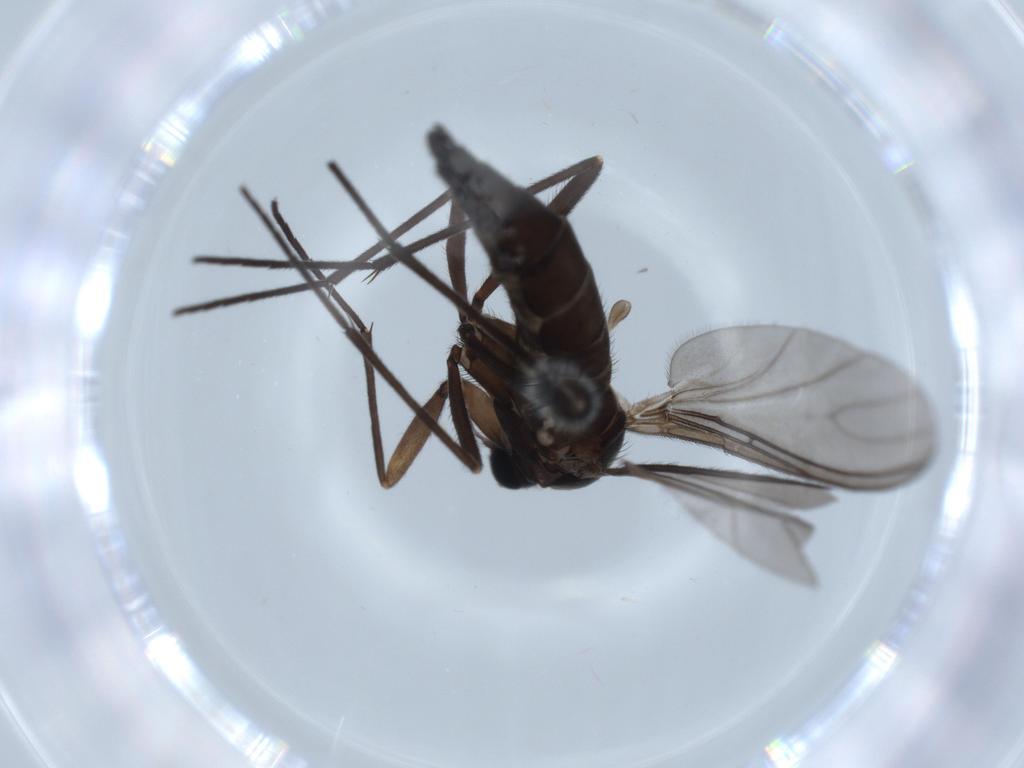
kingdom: Animalia
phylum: Arthropoda
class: Insecta
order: Diptera
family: Sciaridae
